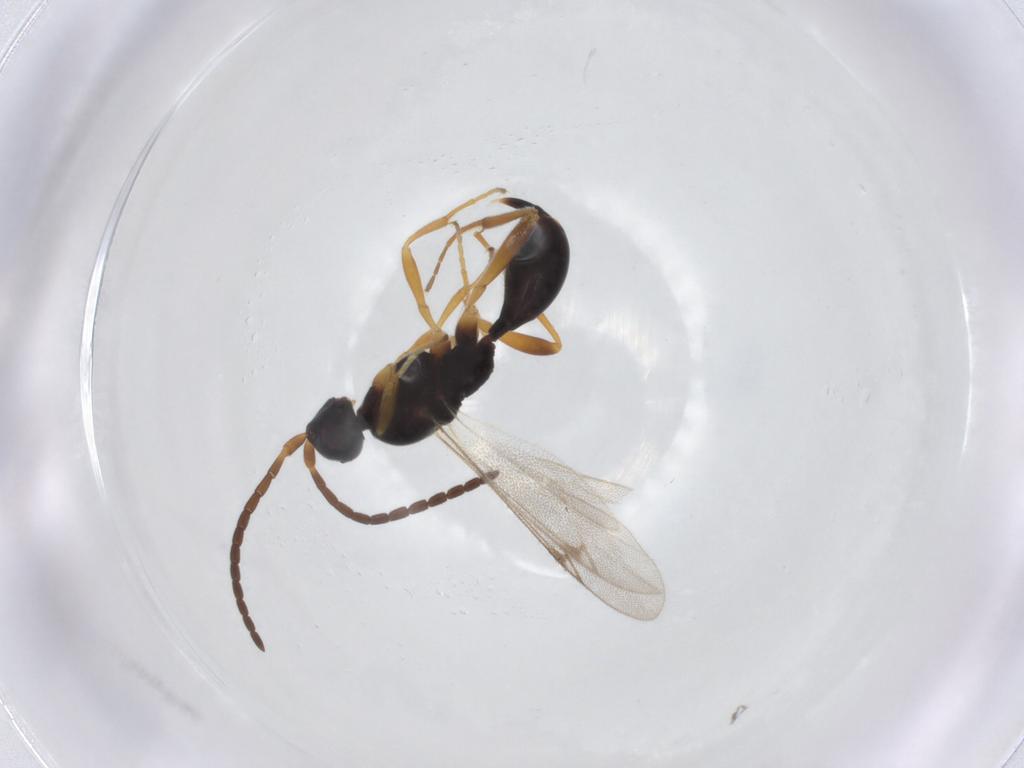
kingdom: Animalia
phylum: Arthropoda
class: Insecta
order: Hymenoptera
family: Proctotrupidae
